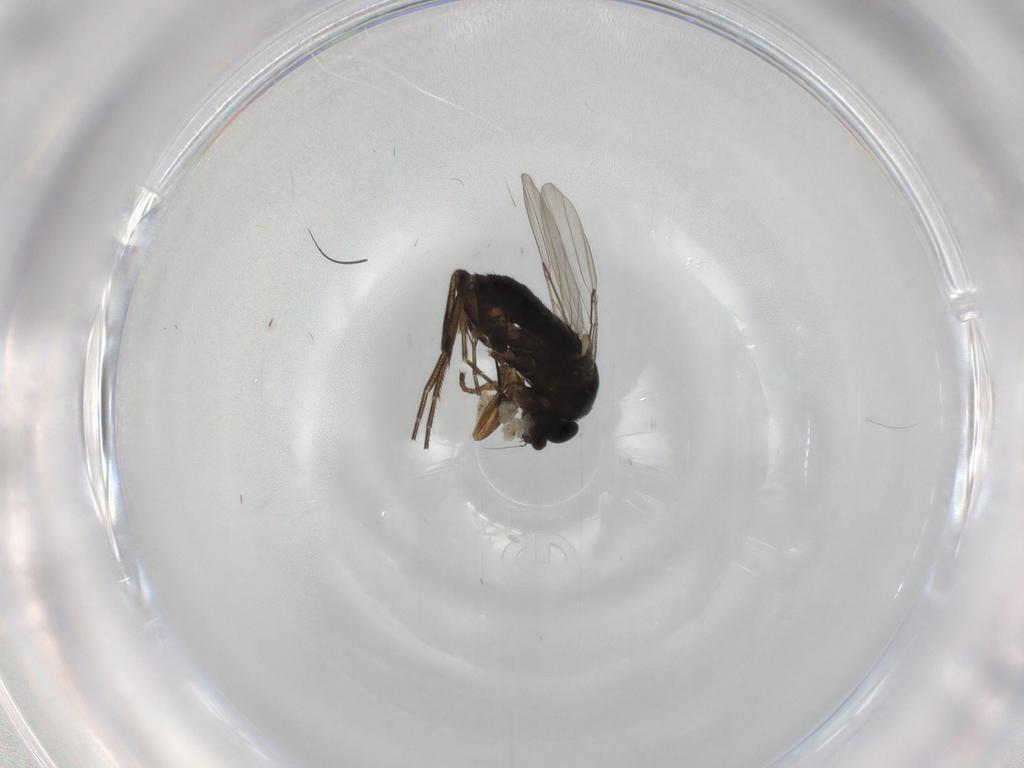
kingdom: Animalia
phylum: Arthropoda
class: Insecta
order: Diptera
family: Phoridae
